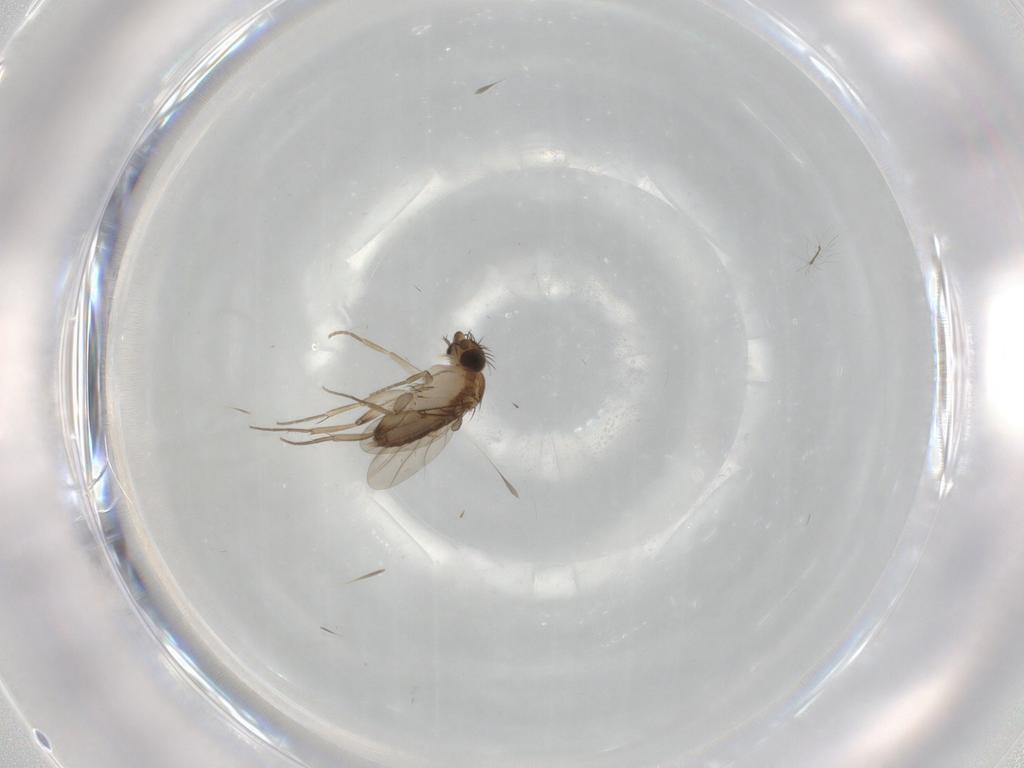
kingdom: Animalia
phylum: Arthropoda
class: Insecta
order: Diptera
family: Phoridae
